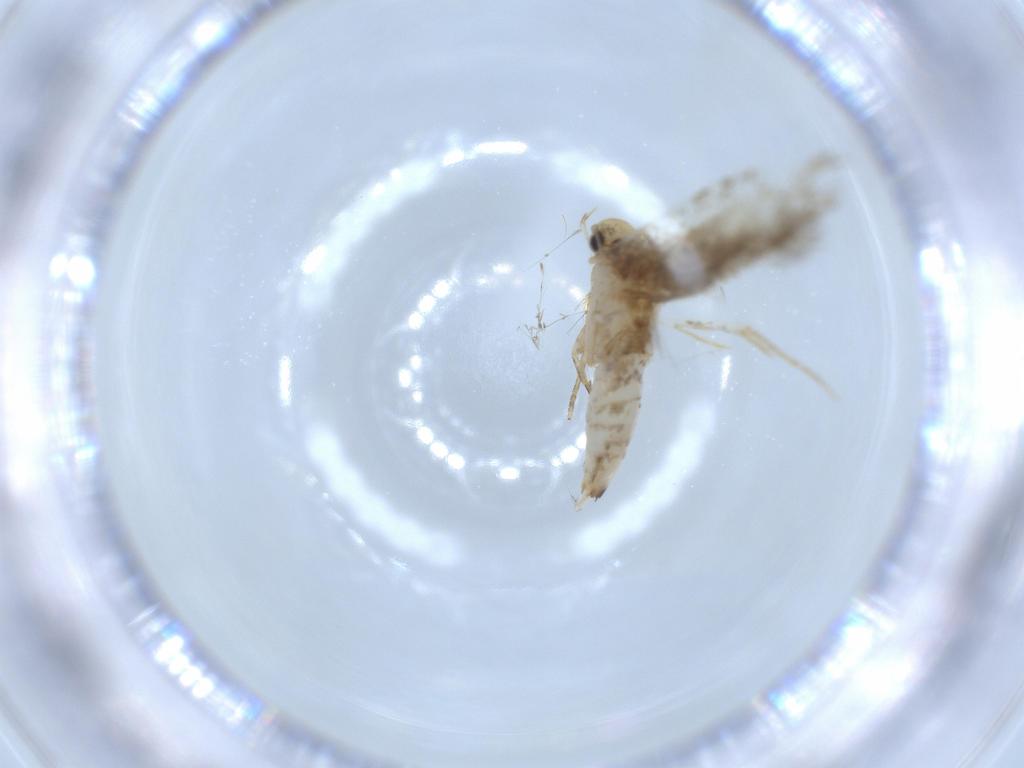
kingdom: Animalia
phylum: Arthropoda
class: Insecta
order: Lepidoptera
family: Tineidae
